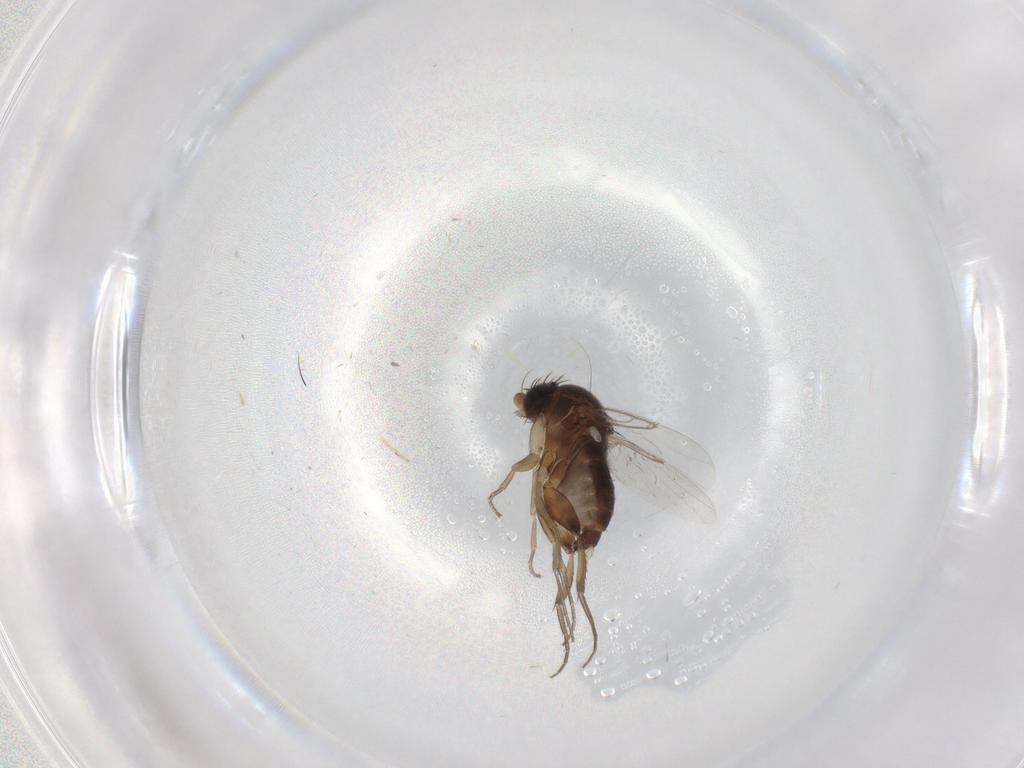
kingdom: Animalia
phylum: Arthropoda
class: Insecta
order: Diptera
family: Phoridae
